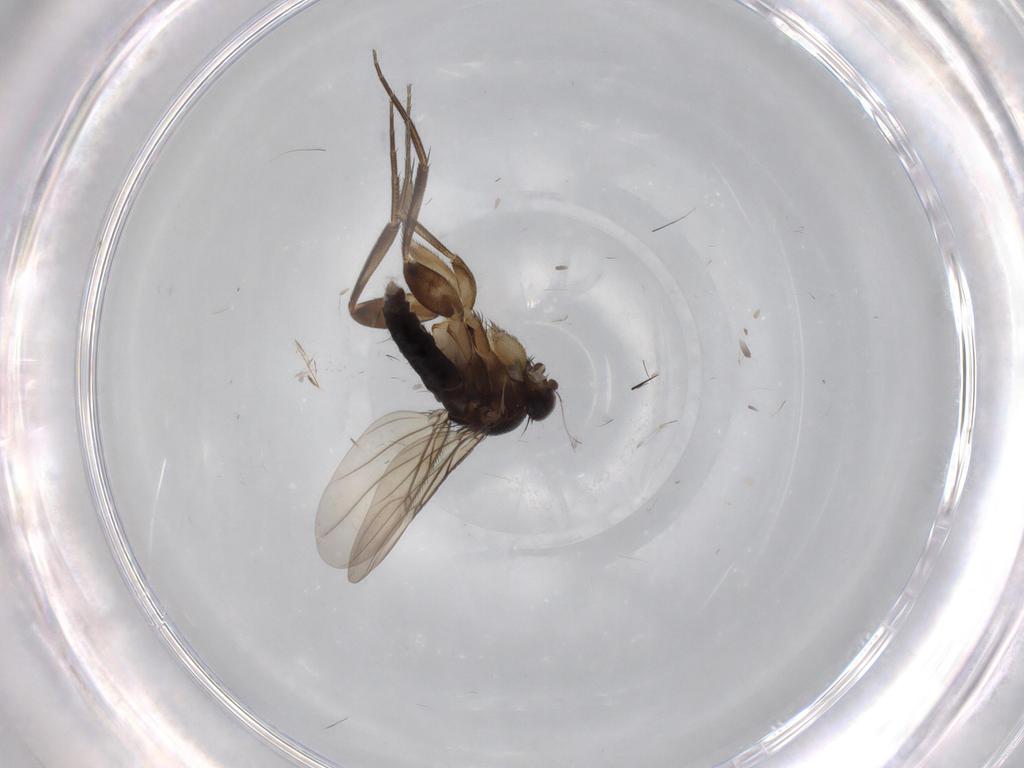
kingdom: Animalia
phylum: Arthropoda
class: Insecta
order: Diptera
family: Phoridae
